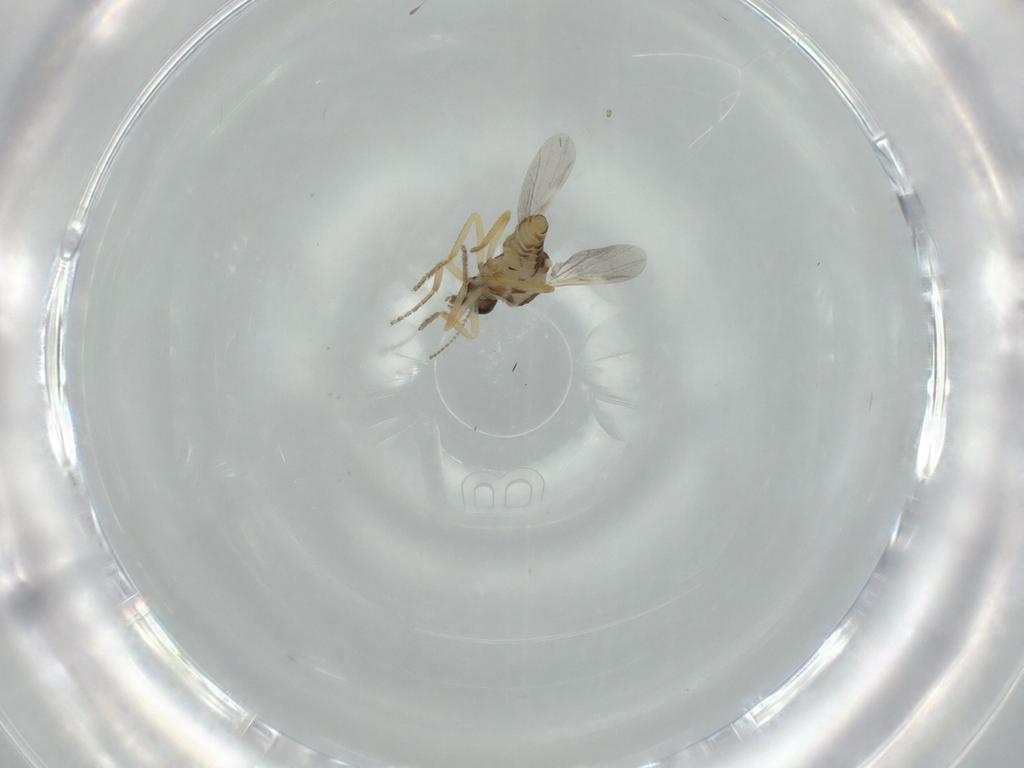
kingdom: Animalia
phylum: Arthropoda
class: Insecta
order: Diptera
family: Ceratopogonidae
